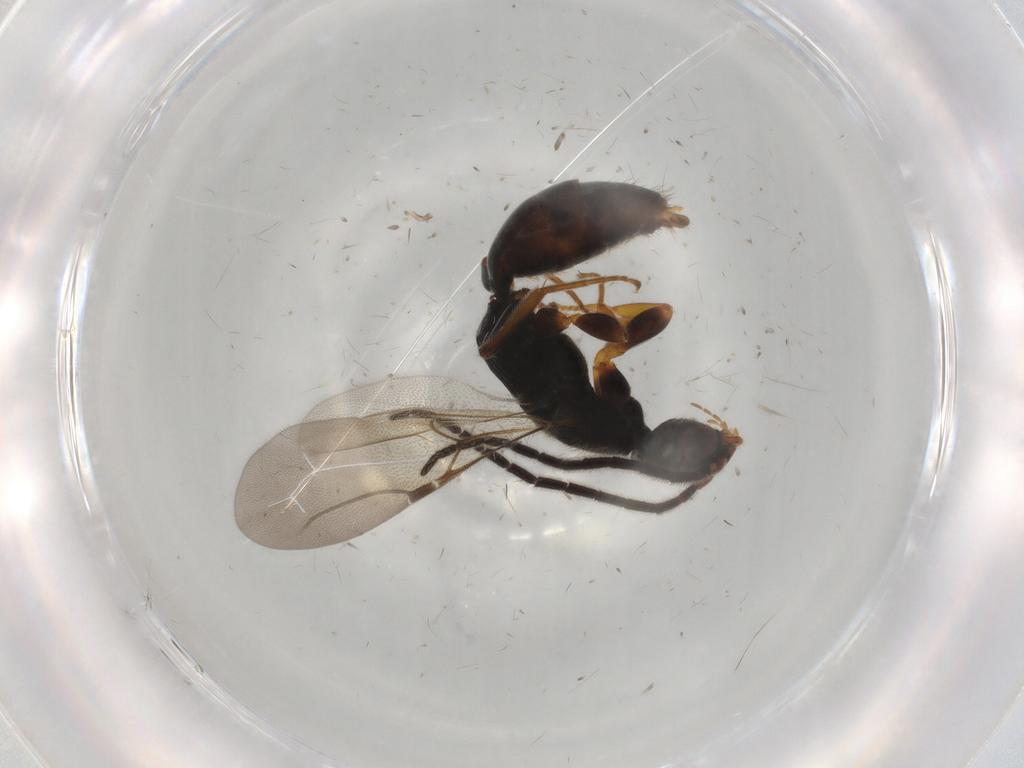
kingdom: Animalia
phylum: Arthropoda
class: Insecta
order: Hymenoptera
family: Bethylidae
